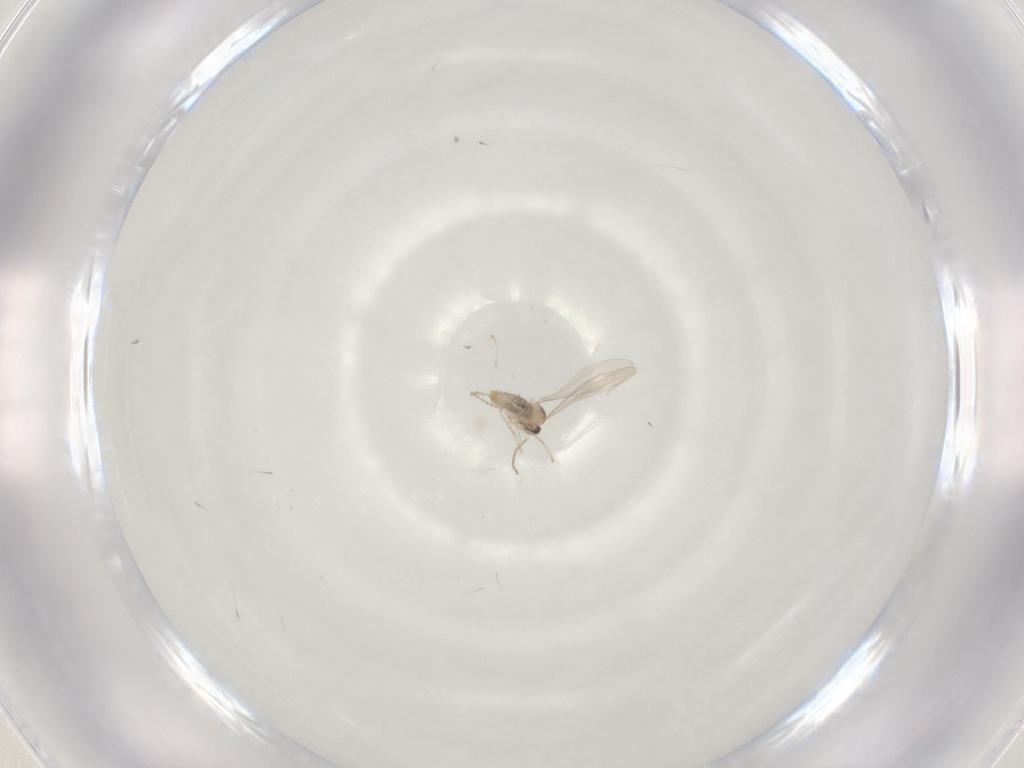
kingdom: Animalia
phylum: Arthropoda
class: Insecta
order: Diptera
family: Cecidomyiidae
